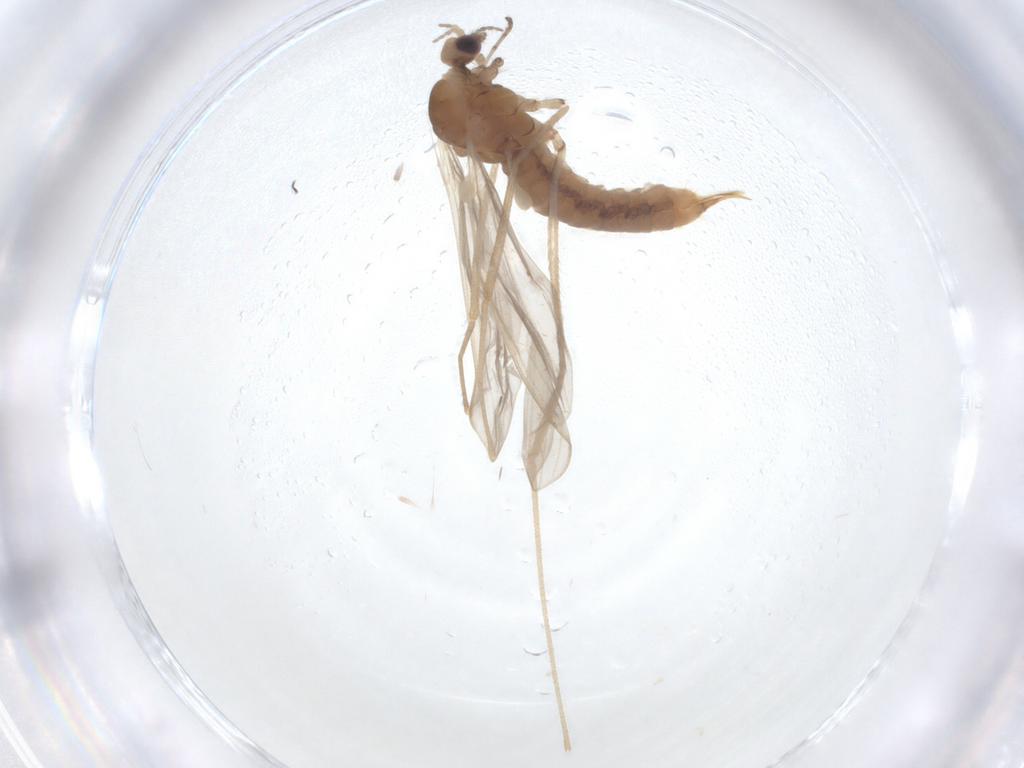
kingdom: Animalia
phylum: Arthropoda
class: Insecta
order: Diptera
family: Limoniidae
